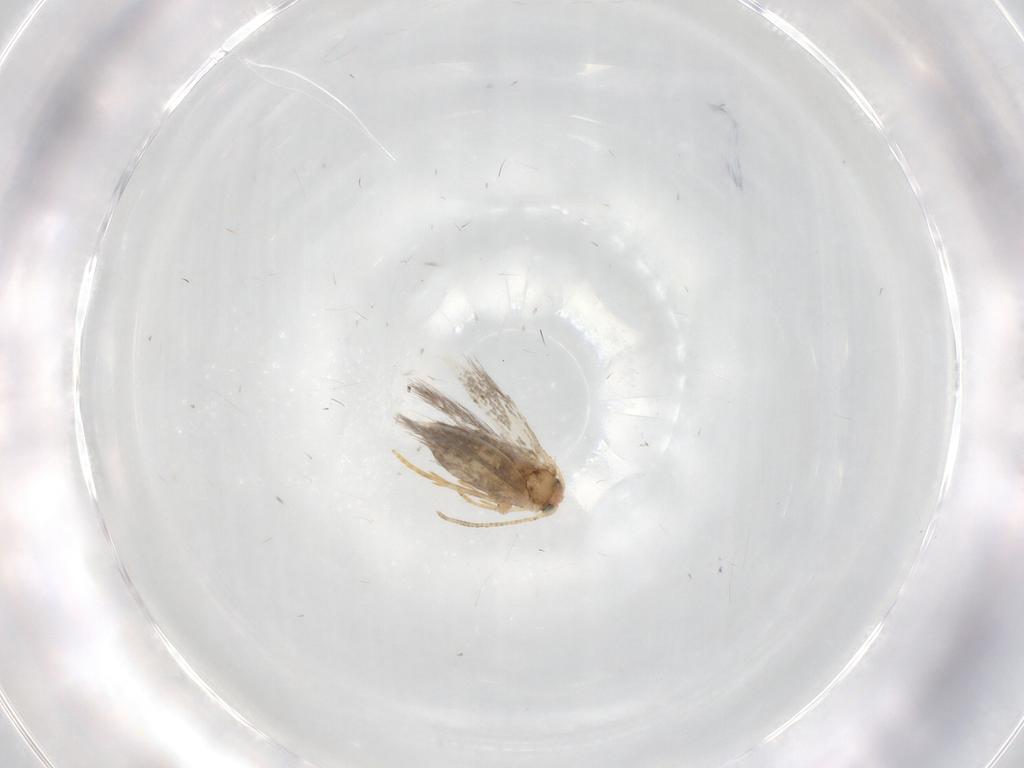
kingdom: Animalia
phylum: Arthropoda
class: Insecta
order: Lepidoptera
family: Nepticulidae
